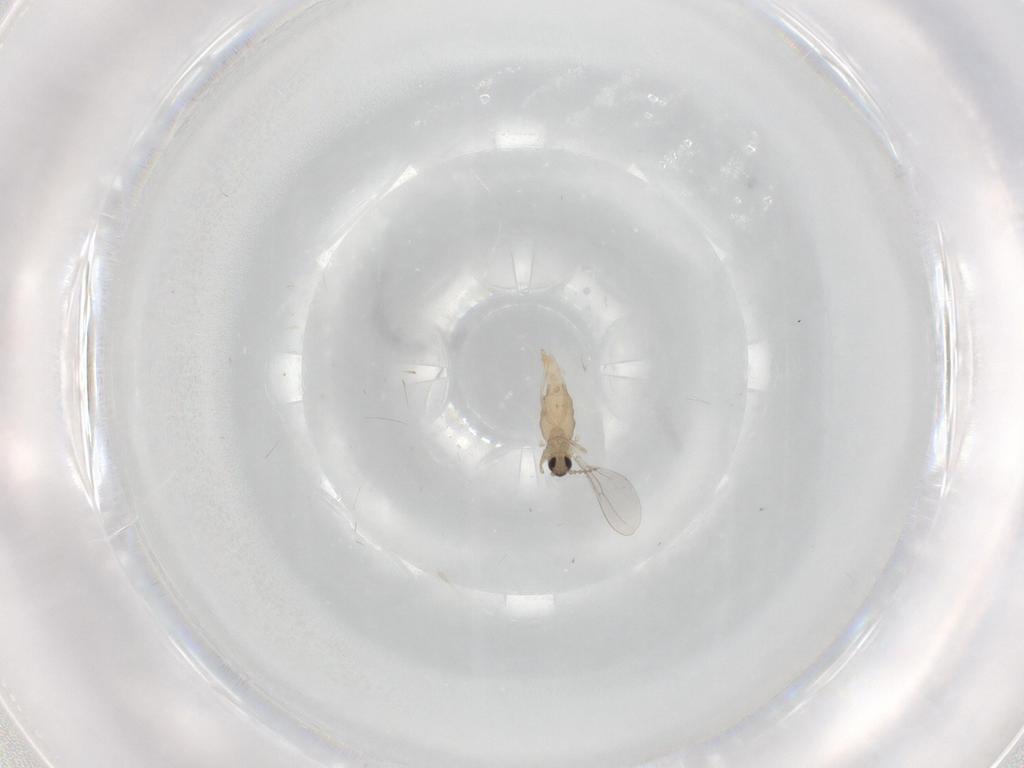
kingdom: Animalia
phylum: Arthropoda
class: Insecta
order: Diptera
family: Cecidomyiidae
